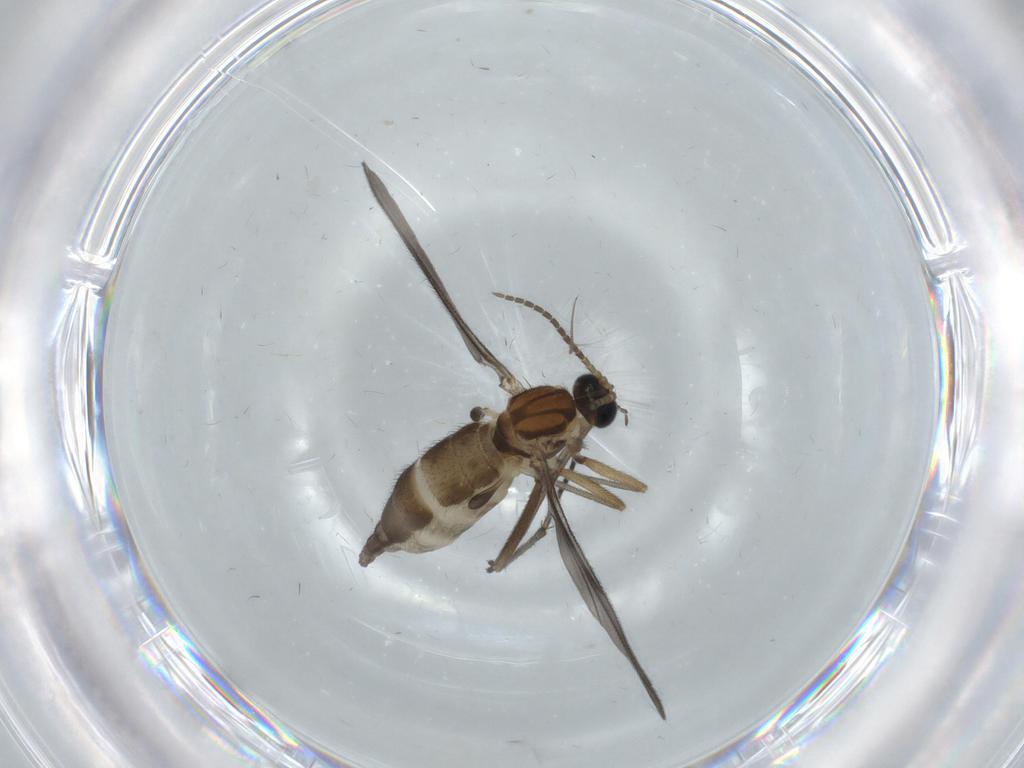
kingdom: Animalia
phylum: Arthropoda
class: Insecta
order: Diptera
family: Sciaridae
